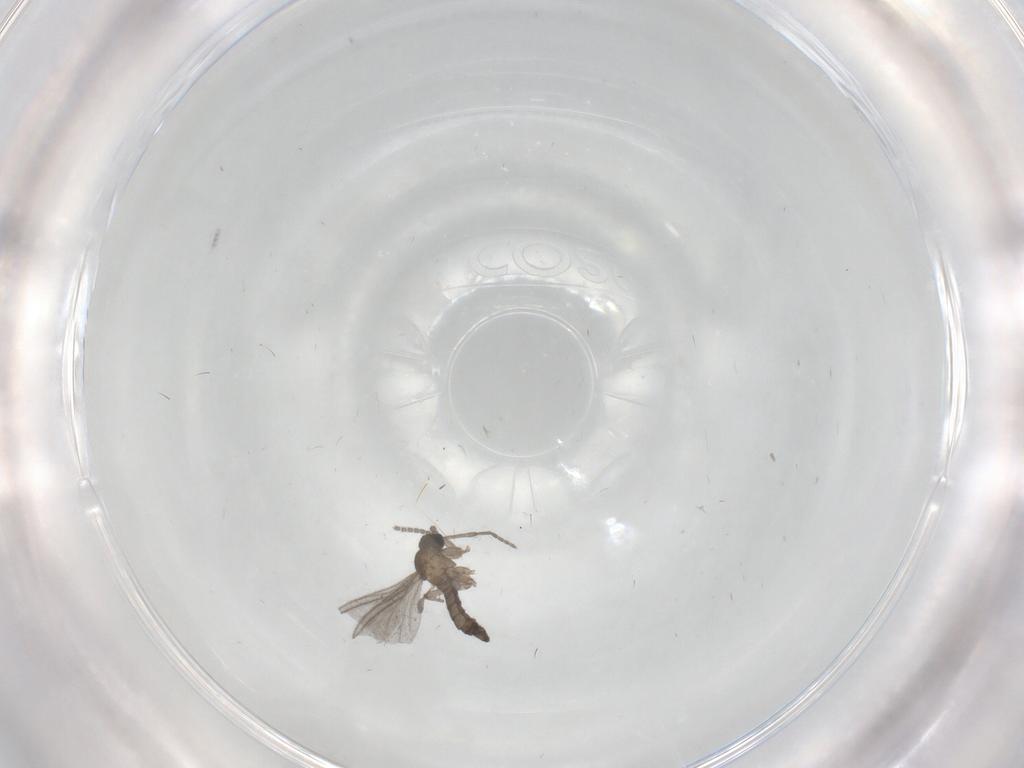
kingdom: Animalia
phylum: Arthropoda
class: Insecta
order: Diptera
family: Sciaridae
